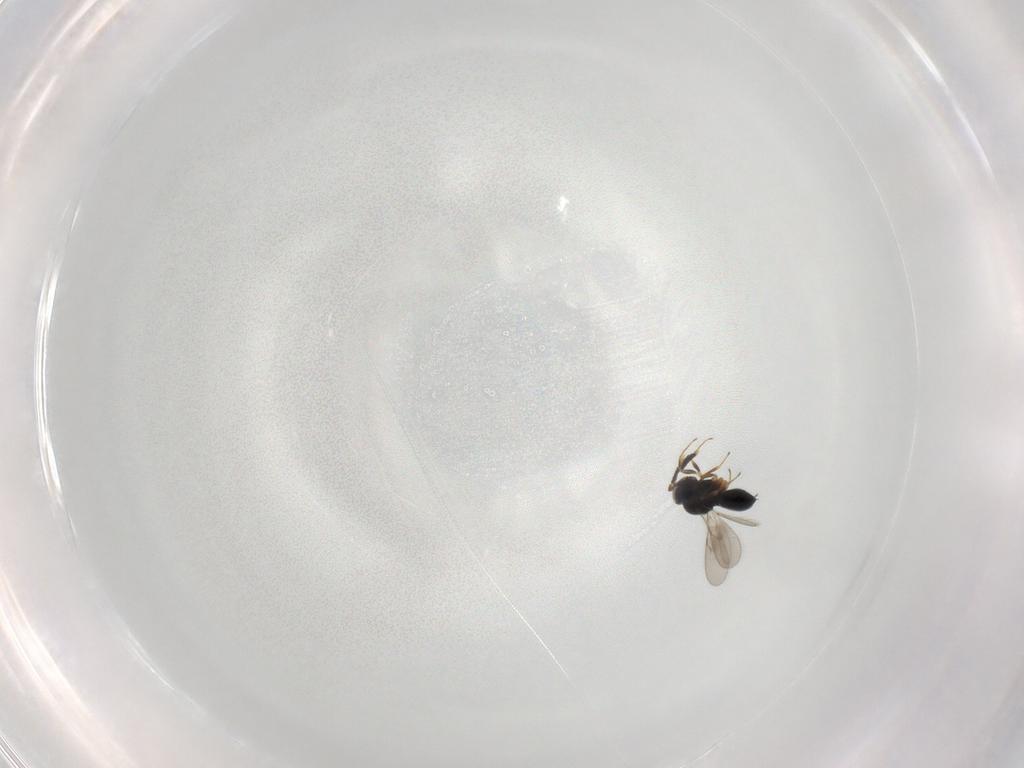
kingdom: Animalia
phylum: Arthropoda
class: Insecta
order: Hymenoptera
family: Scelionidae
